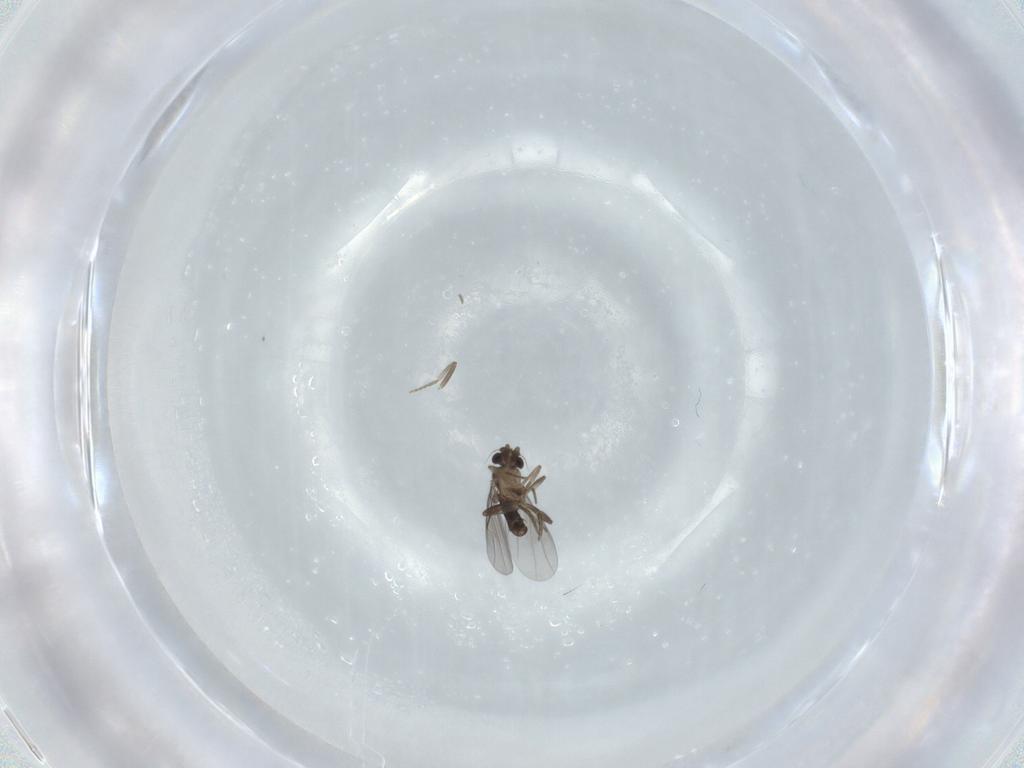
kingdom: Animalia
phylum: Arthropoda
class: Insecta
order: Diptera
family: Phoridae
